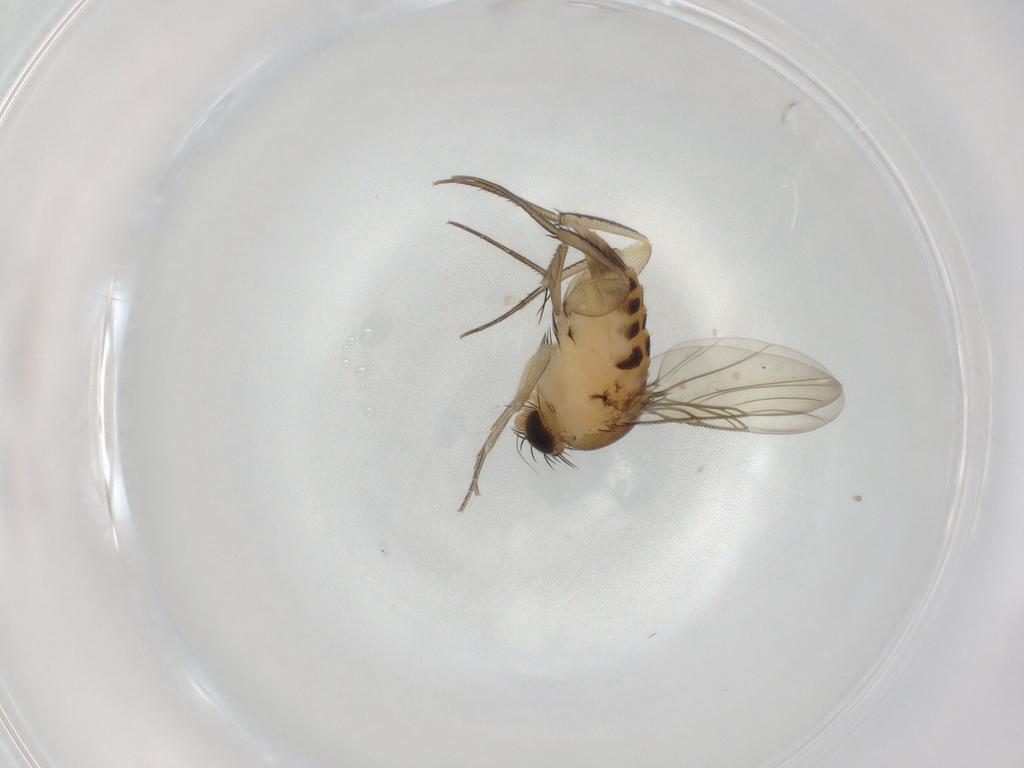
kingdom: Animalia
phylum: Arthropoda
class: Insecta
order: Diptera
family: Phoridae
